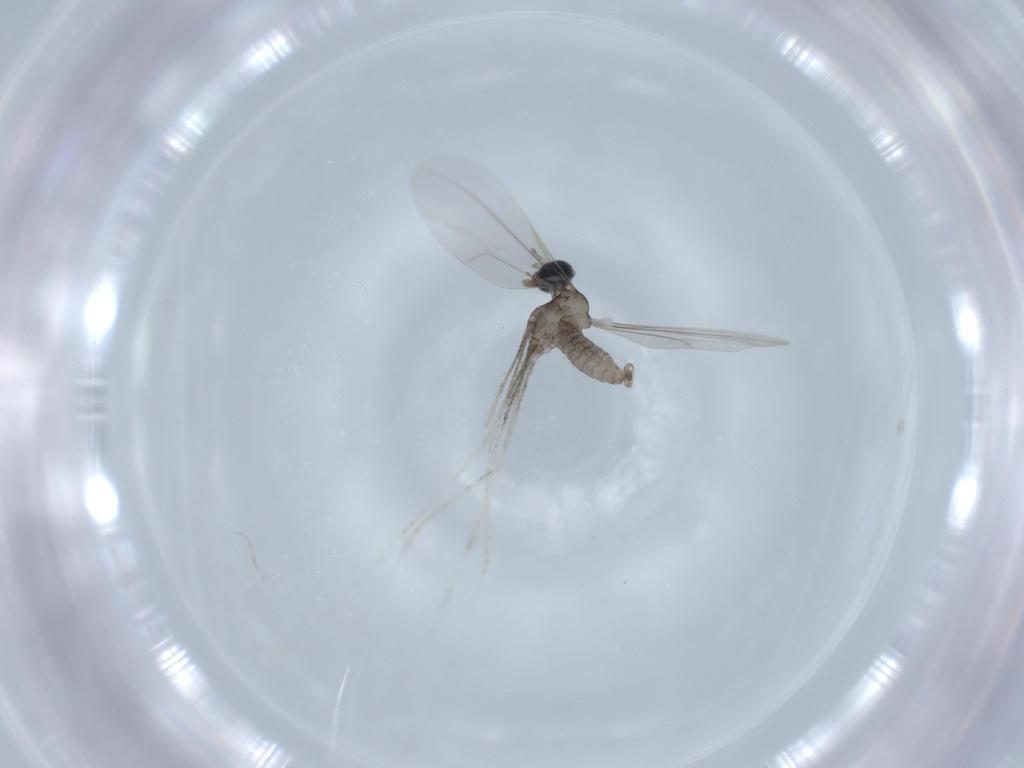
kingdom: Animalia
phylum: Arthropoda
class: Insecta
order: Diptera
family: Cecidomyiidae
